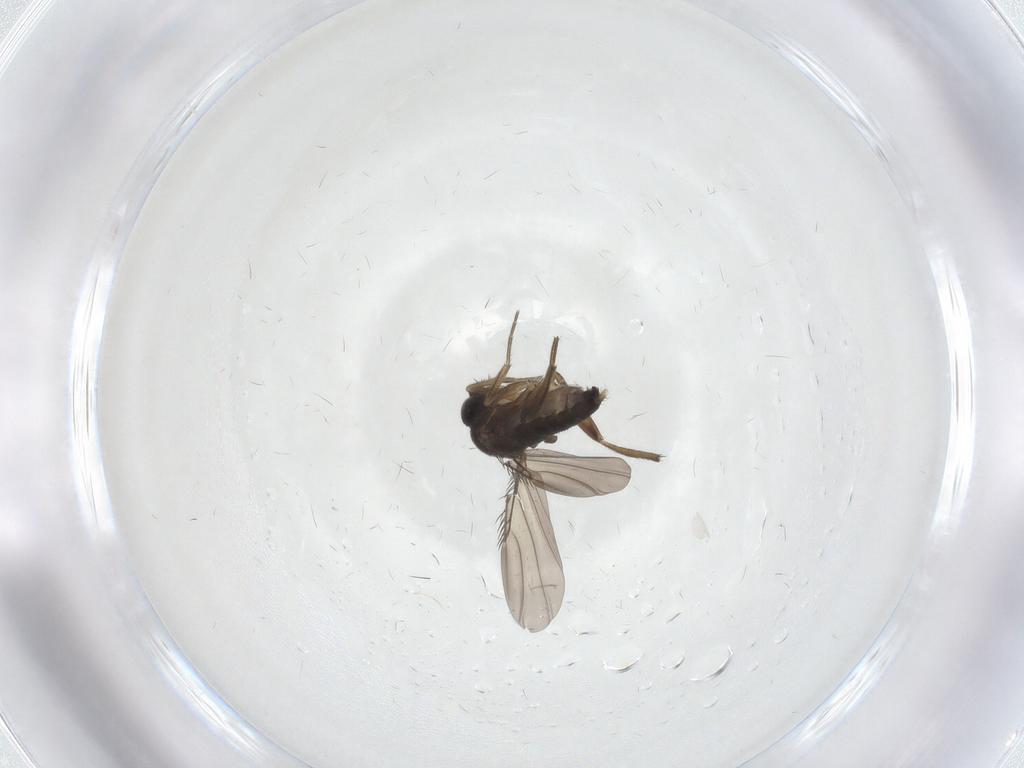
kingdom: Animalia
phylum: Arthropoda
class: Insecta
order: Diptera
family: Phoridae
